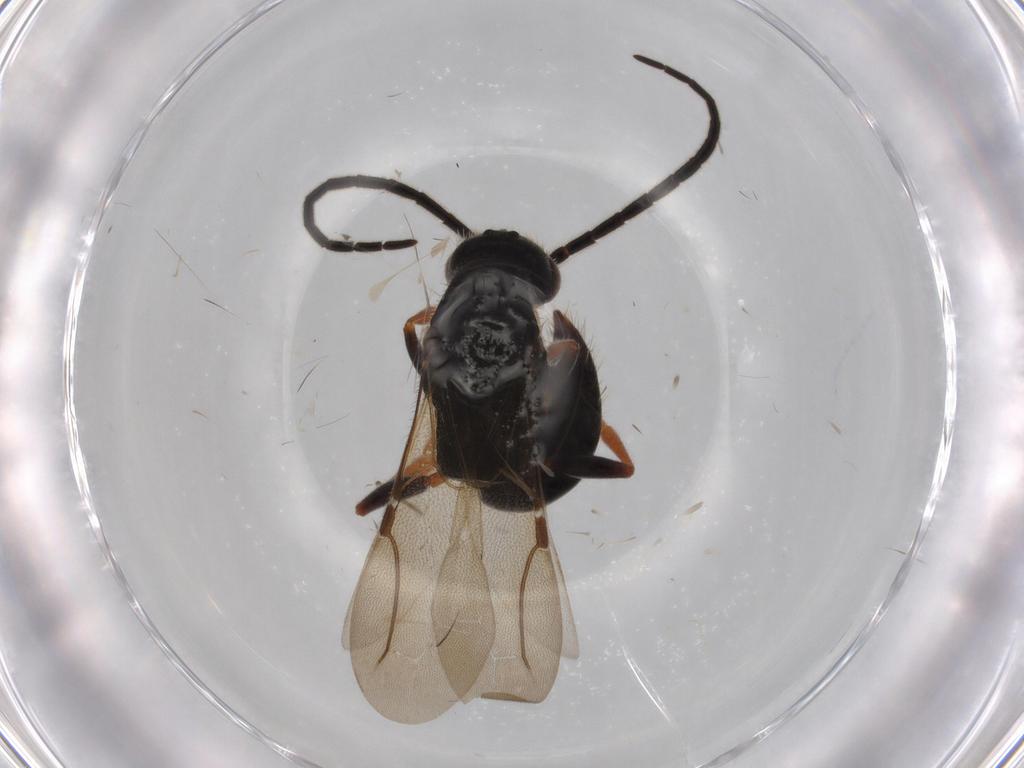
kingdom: Animalia
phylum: Arthropoda
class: Insecta
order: Hymenoptera
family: Bethylidae
